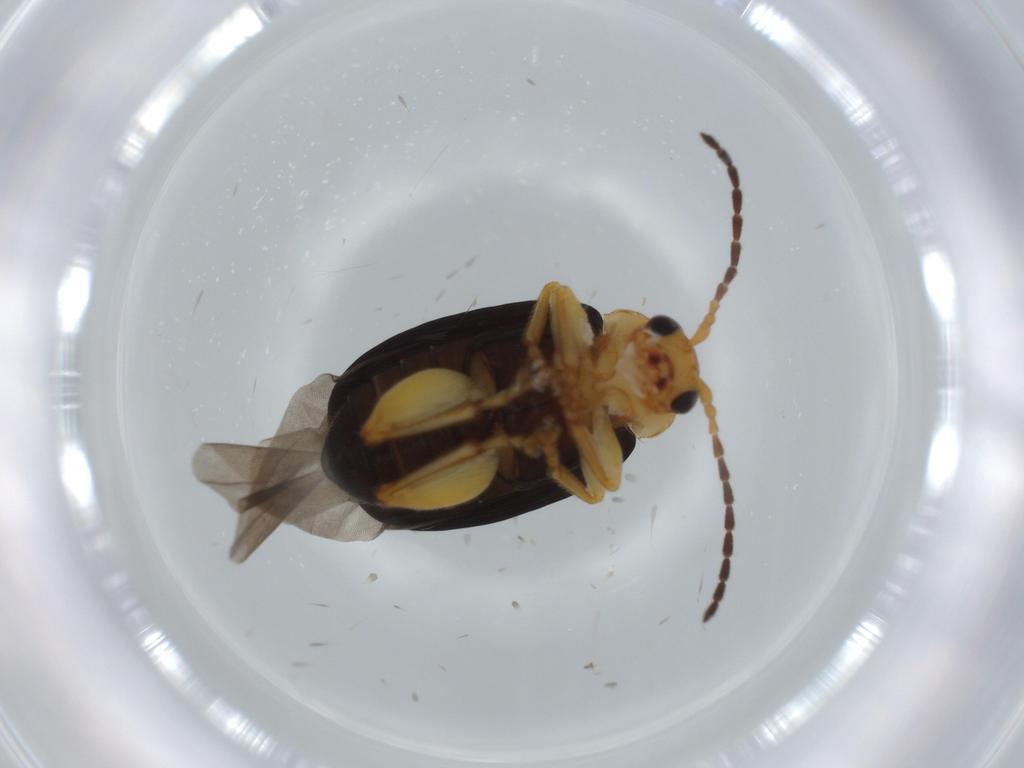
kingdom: Animalia
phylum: Arthropoda
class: Insecta
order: Coleoptera
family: Chrysomelidae
